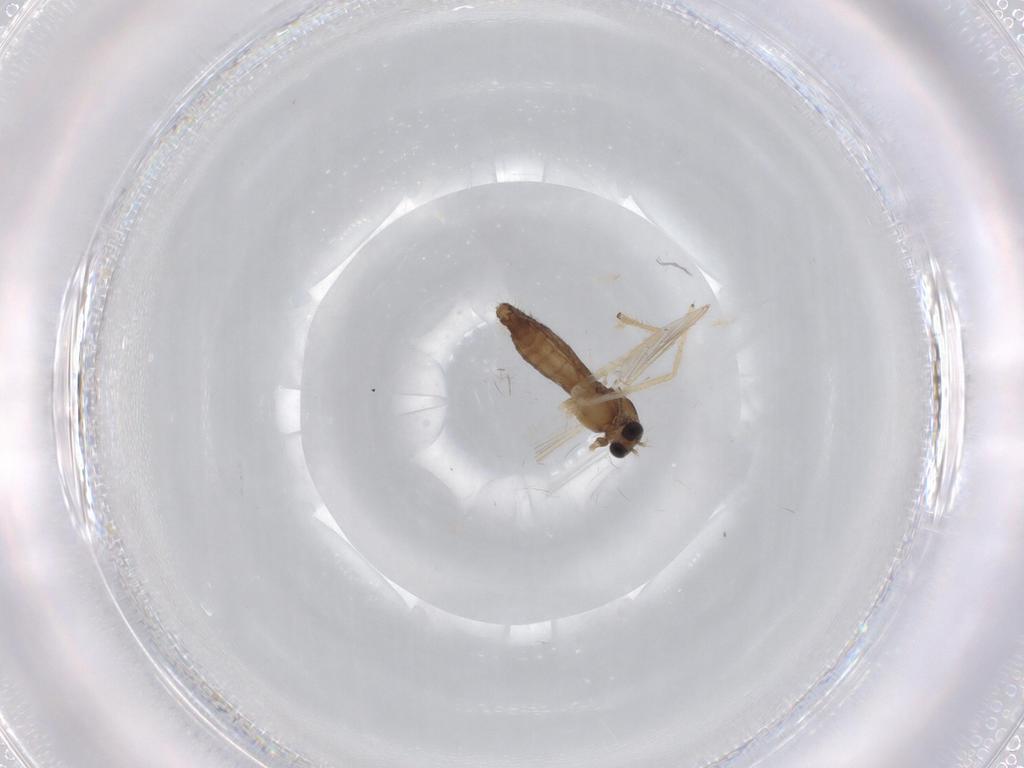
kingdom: Animalia
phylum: Arthropoda
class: Insecta
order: Diptera
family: Chironomidae
